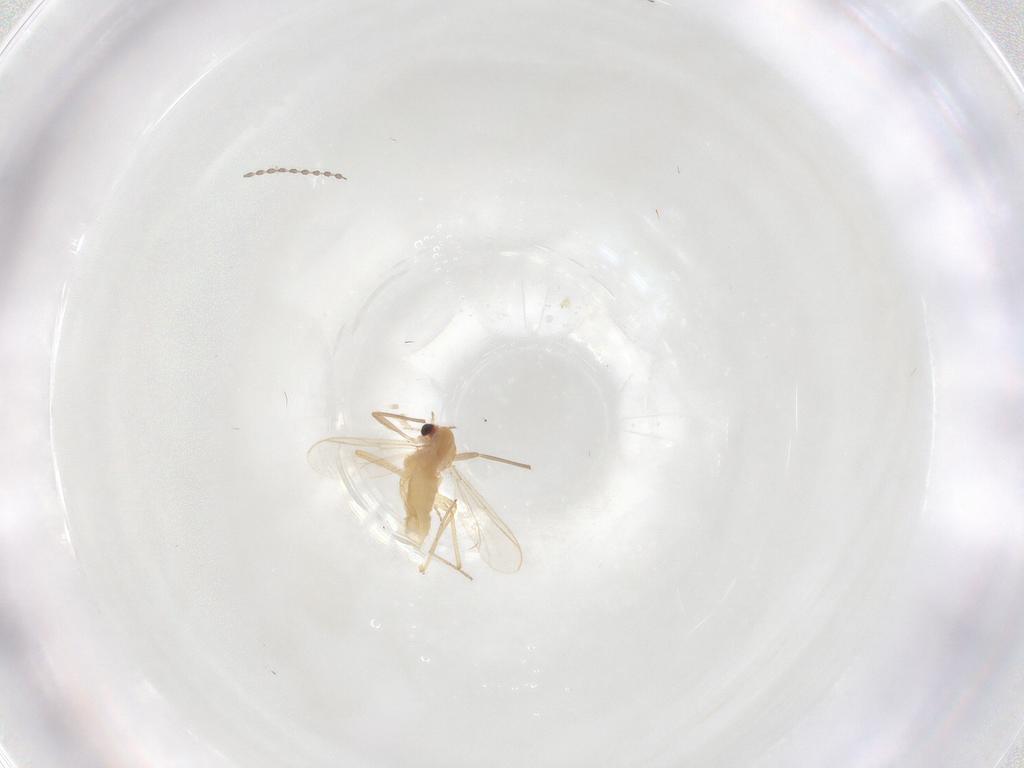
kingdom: Animalia
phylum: Arthropoda
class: Insecta
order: Diptera
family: Chironomidae
